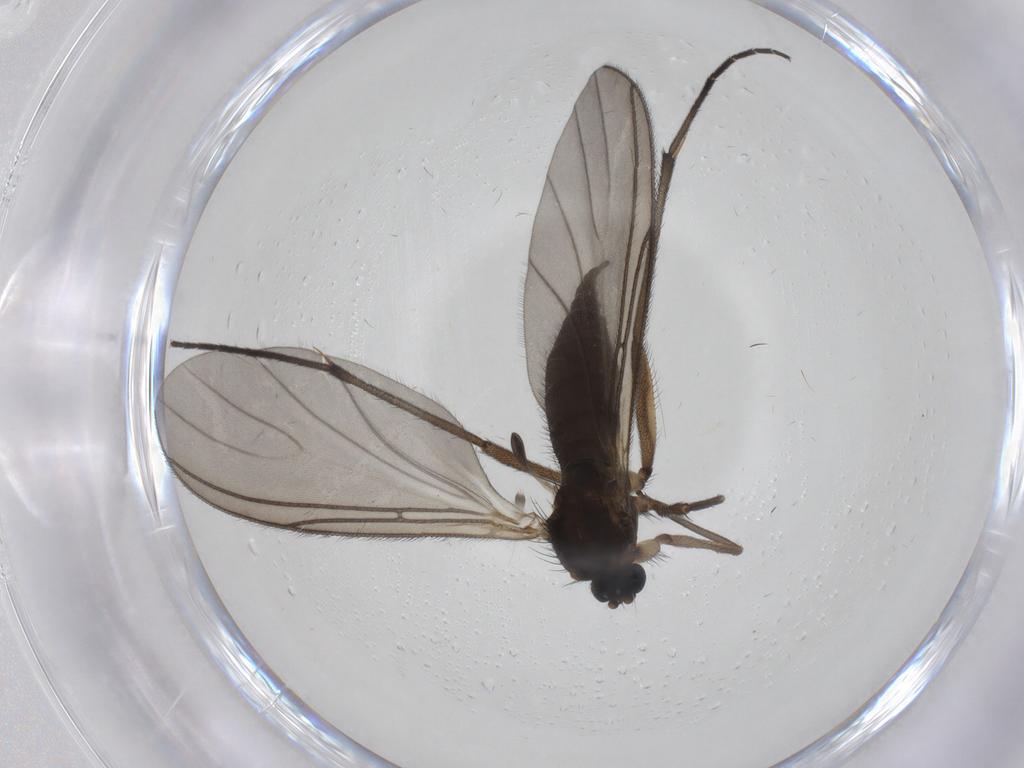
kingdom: Animalia
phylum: Arthropoda
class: Insecta
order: Diptera
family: Sciaridae
